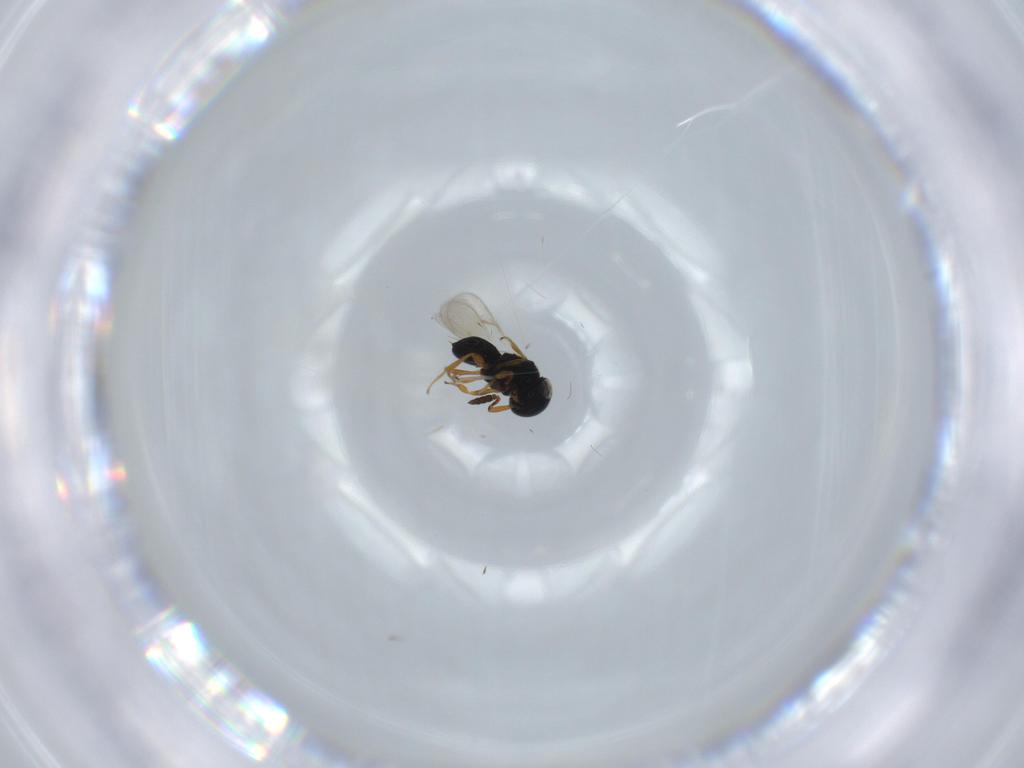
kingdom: Animalia
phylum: Arthropoda
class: Insecta
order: Hymenoptera
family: Scelionidae
